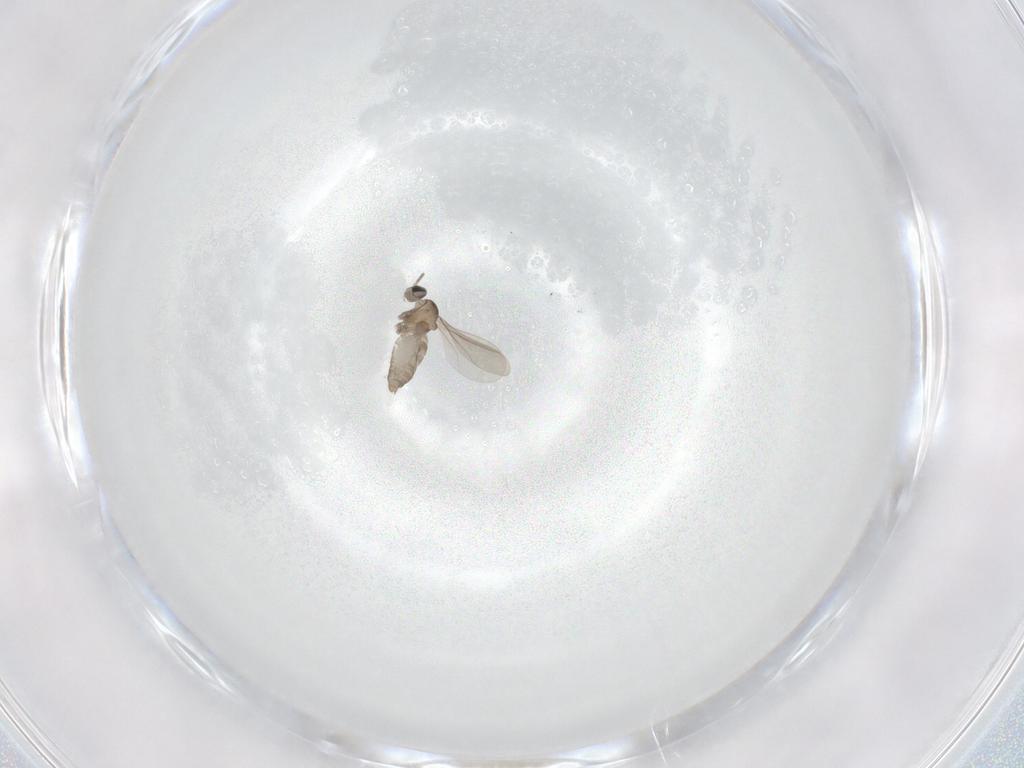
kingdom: Animalia
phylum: Arthropoda
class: Insecta
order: Diptera
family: Cecidomyiidae
